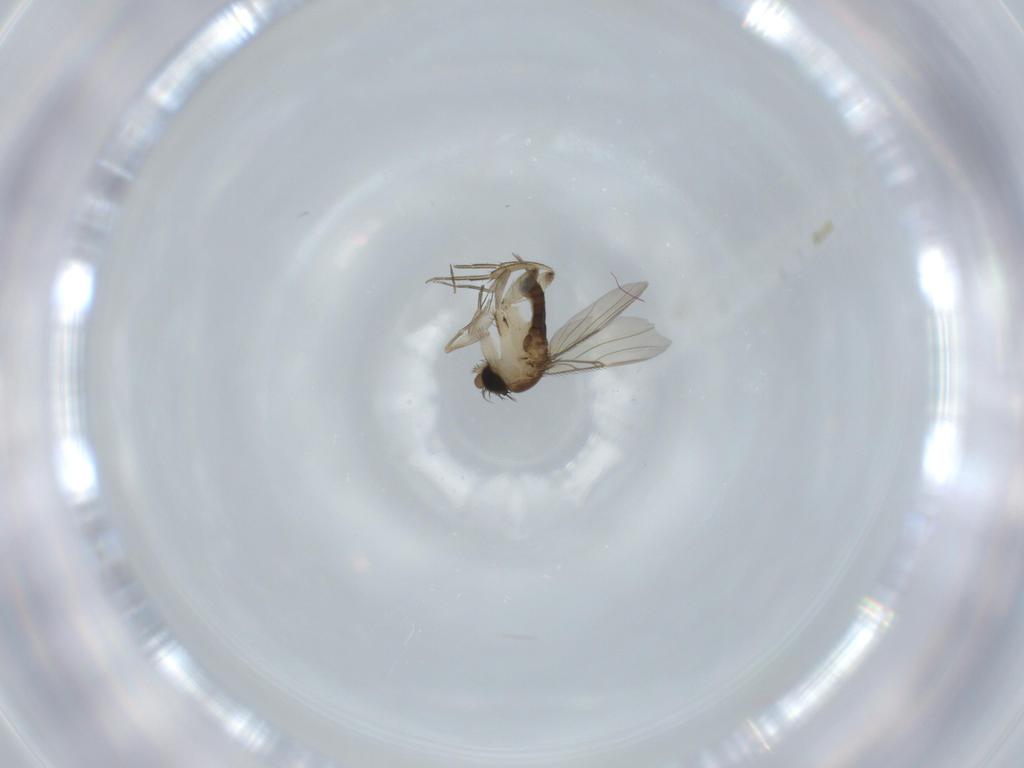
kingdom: Animalia
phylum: Arthropoda
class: Insecta
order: Diptera
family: Phoridae
